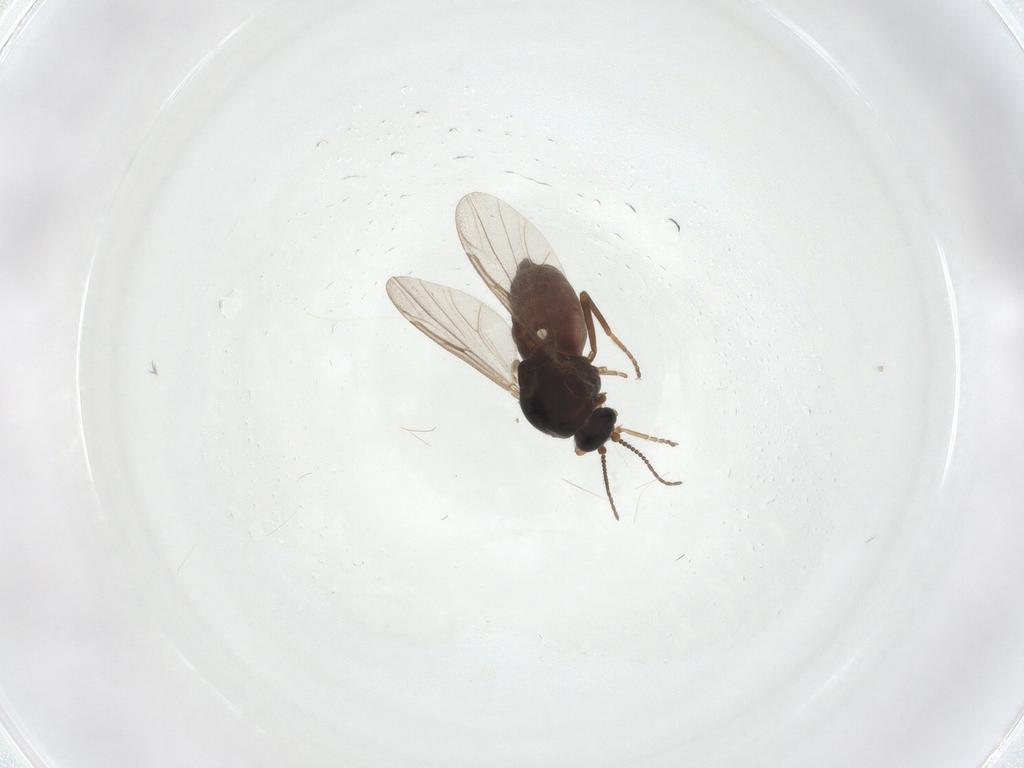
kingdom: Animalia
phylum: Arthropoda
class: Insecta
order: Diptera
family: Ceratopogonidae
